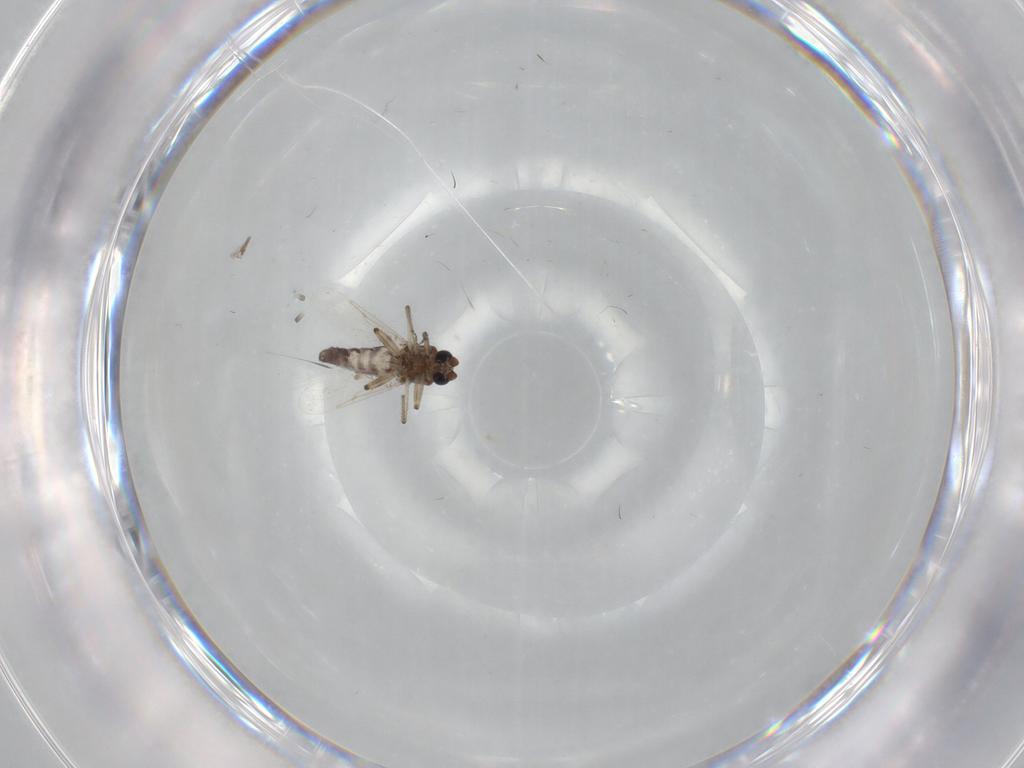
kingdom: Animalia
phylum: Arthropoda
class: Insecta
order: Diptera
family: Ceratopogonidae
